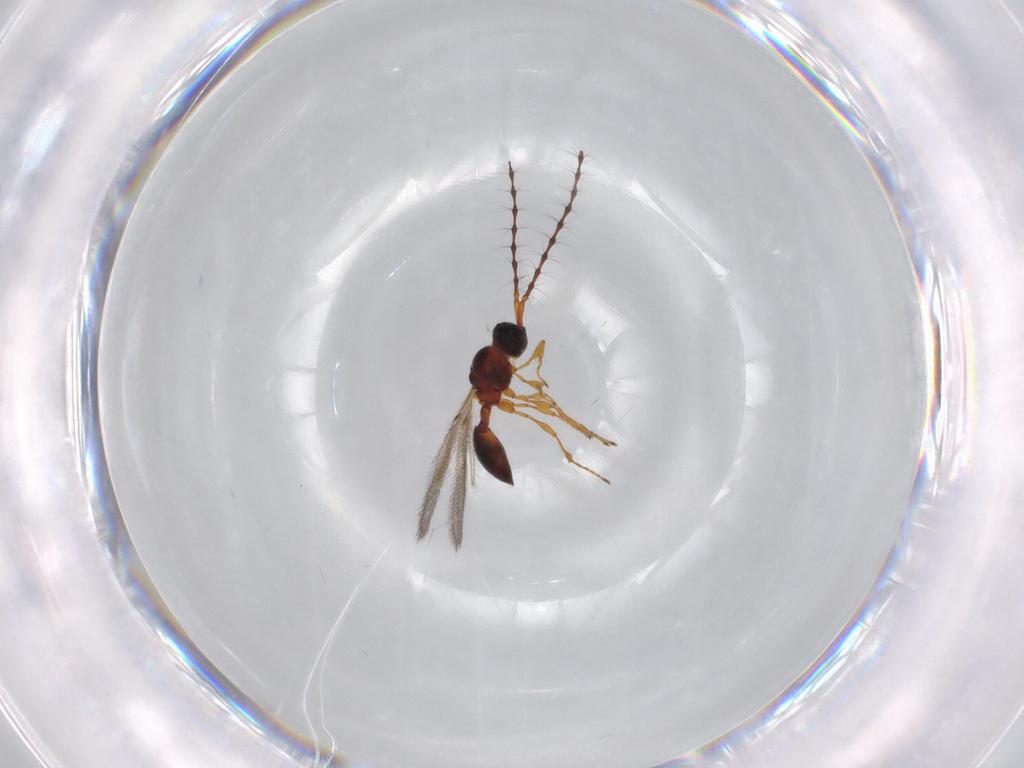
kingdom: Animalia
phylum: Arthropoda
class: Insecta
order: Hymenoptera
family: Diapriidae
